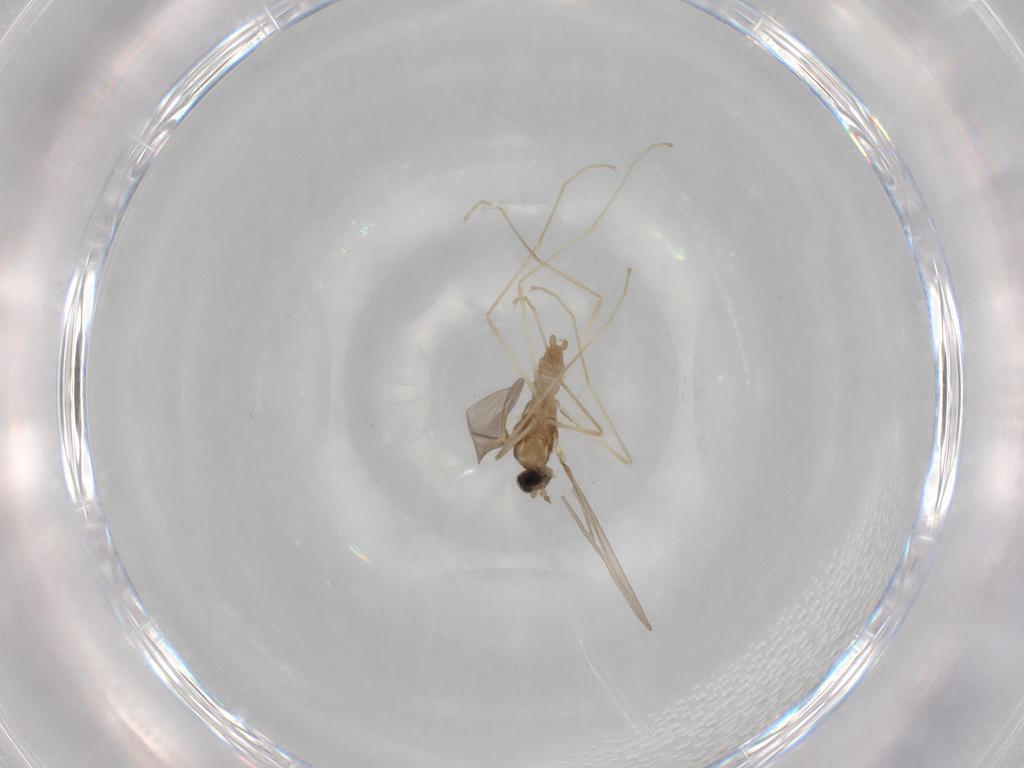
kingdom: Animalia
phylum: Arthropoda
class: Insecta
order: Diptera
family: Cecidomyiidae
